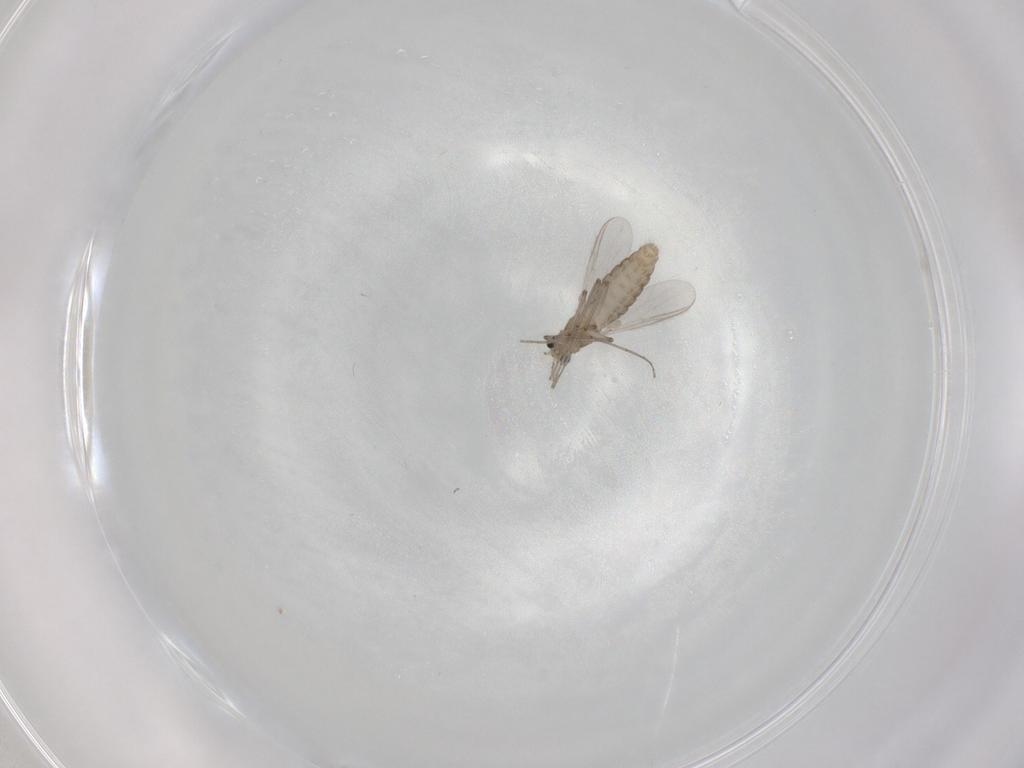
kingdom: Animalia
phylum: Arthropoda
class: Insecta
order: Diptera
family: Chironomidae
